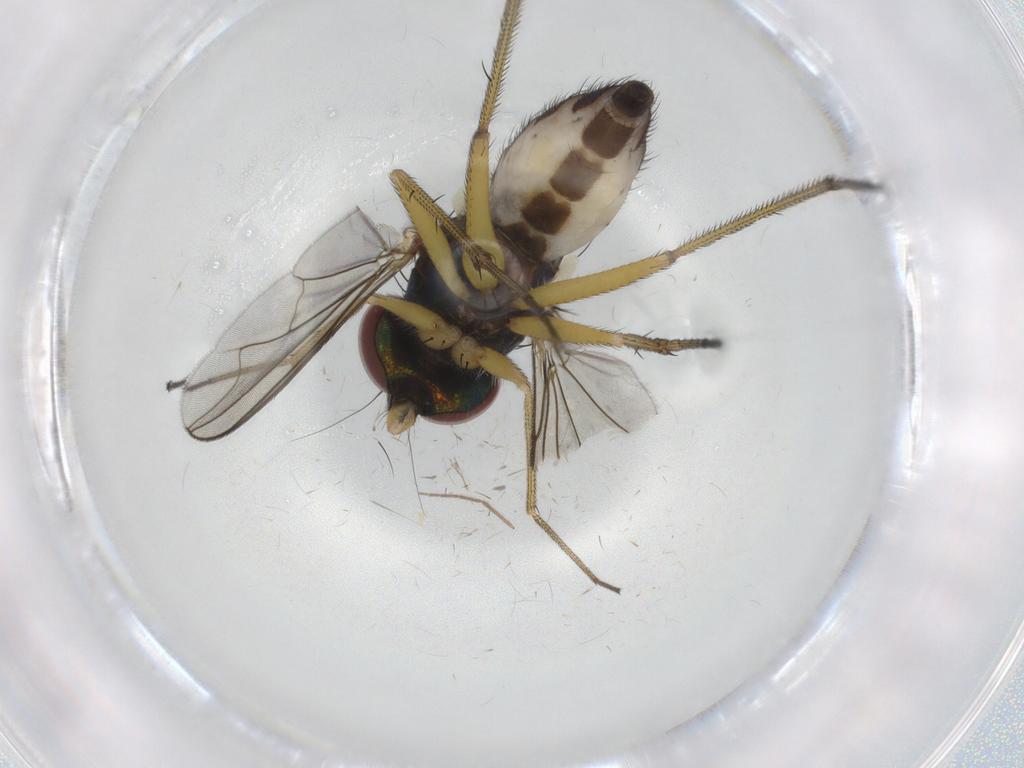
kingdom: Animalia
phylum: Arthropoda
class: Insecta
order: Diptera
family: Dolichopodidae
